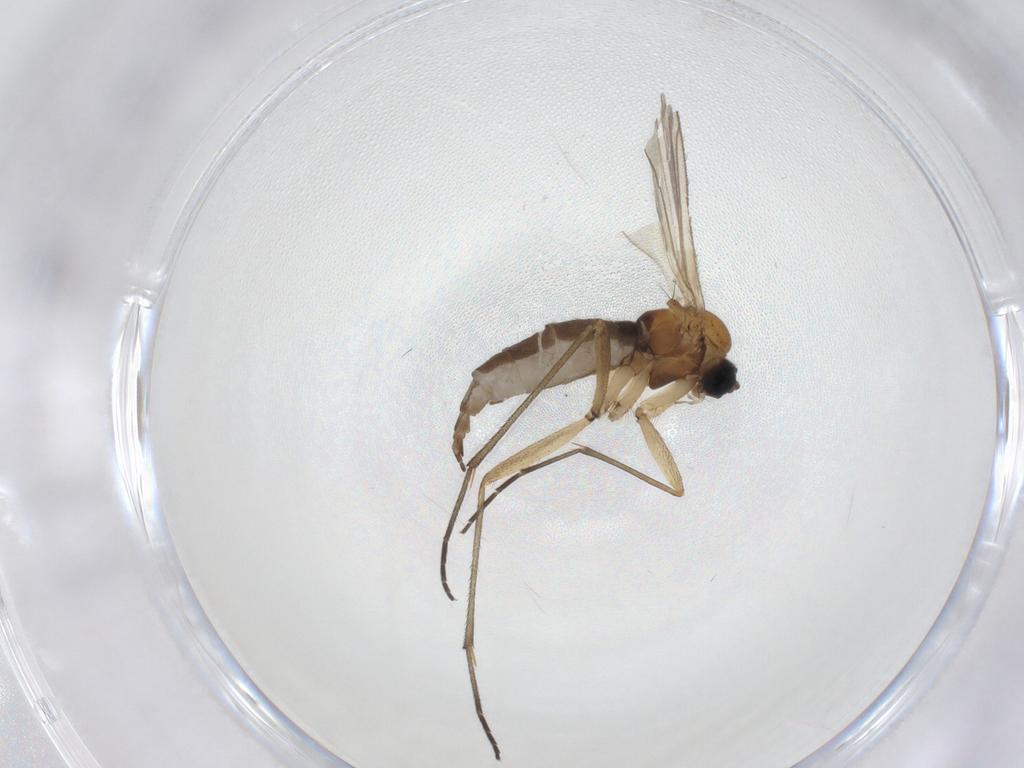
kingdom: Animalia
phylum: Arthropoda
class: Insecta
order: Diptera
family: Sciaridae
